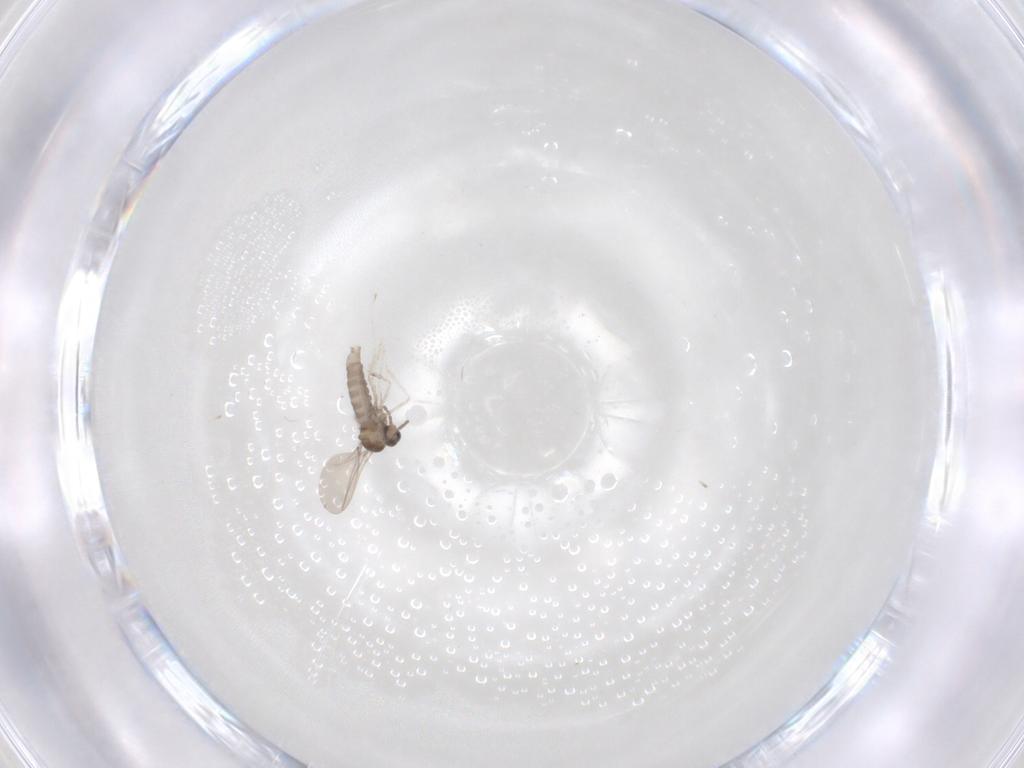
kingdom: Animalia
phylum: Arthropoda
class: Insecta
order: Diptera
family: Cecidomyiidae
